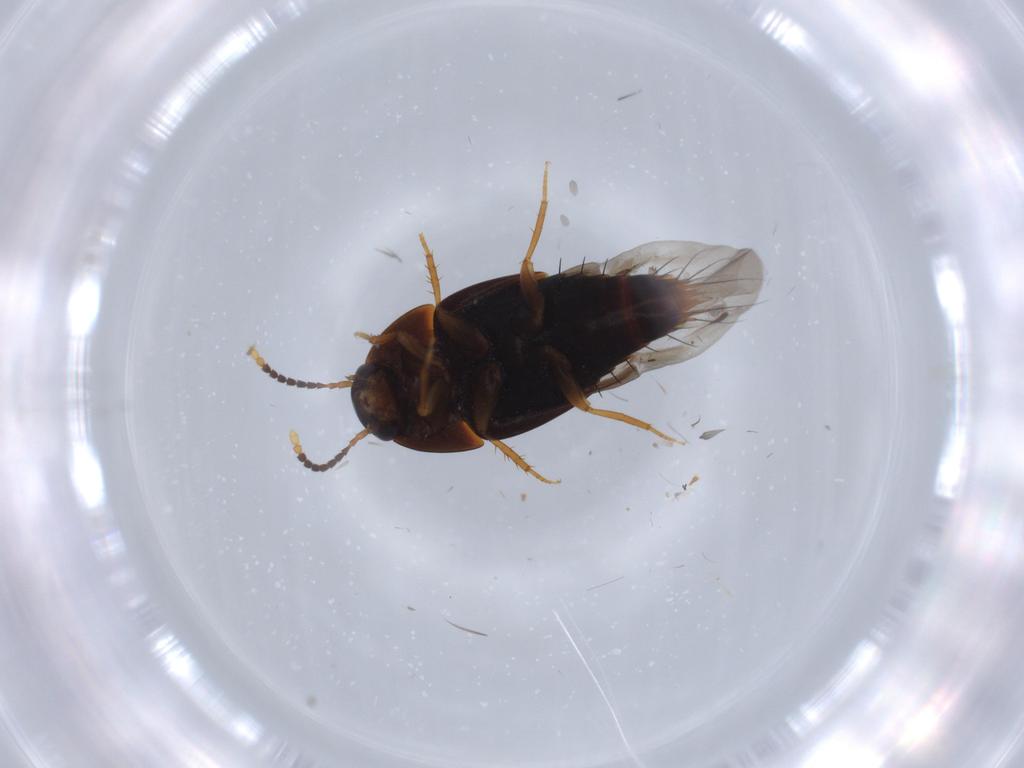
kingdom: Animalia
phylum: Arthropoda
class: Insecta
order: Coleoptera
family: Staphylinidae
